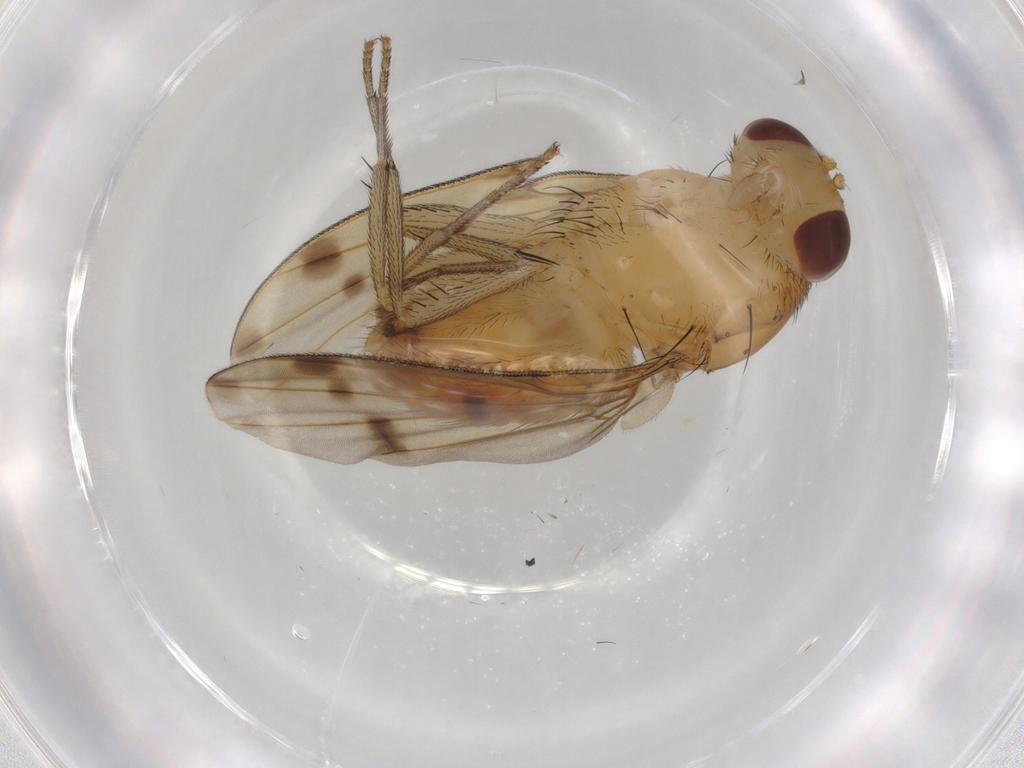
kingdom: Animalia
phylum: Arthropoda
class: Insecta
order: Diptera
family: Cecidomyiidae
